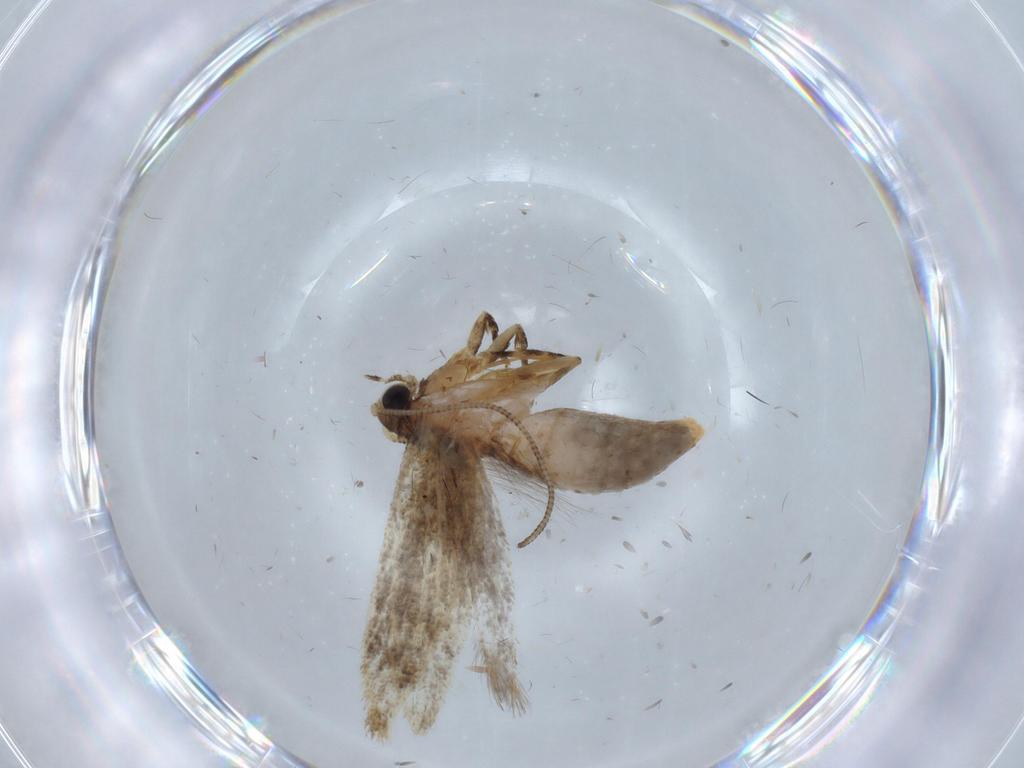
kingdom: Animalia
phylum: Arthropoda
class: Insecta
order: Lepidoptera
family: Tineidae
